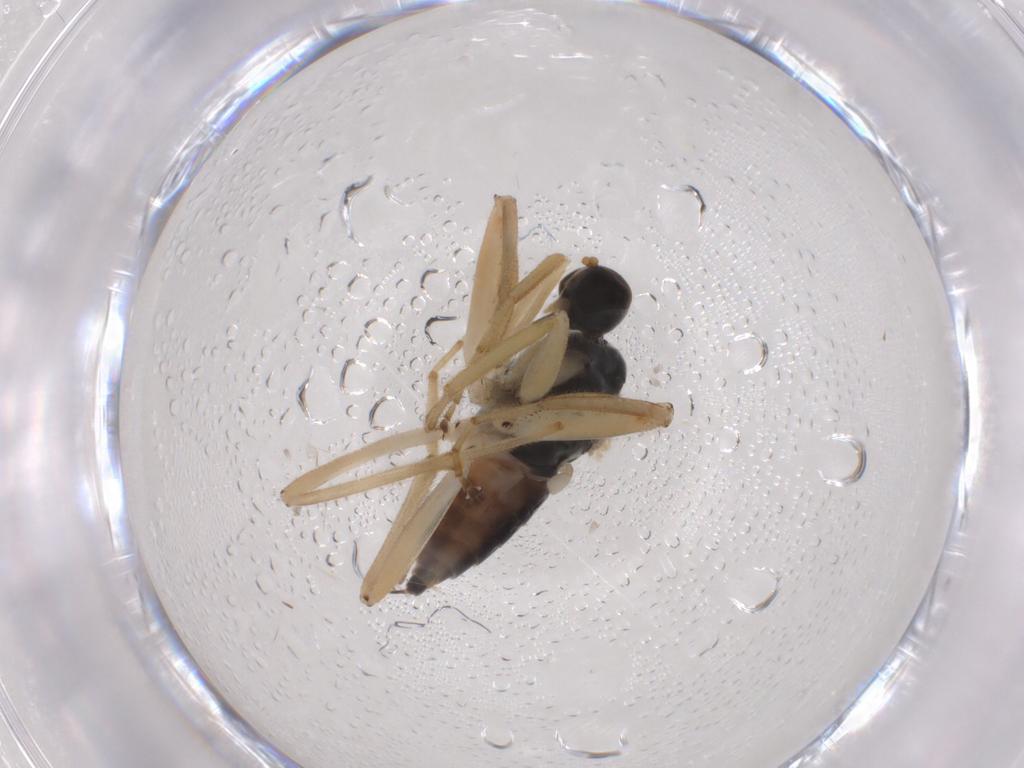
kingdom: Animalia
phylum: Arthropoda
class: Insecta
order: Diptera
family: Hybotidae
